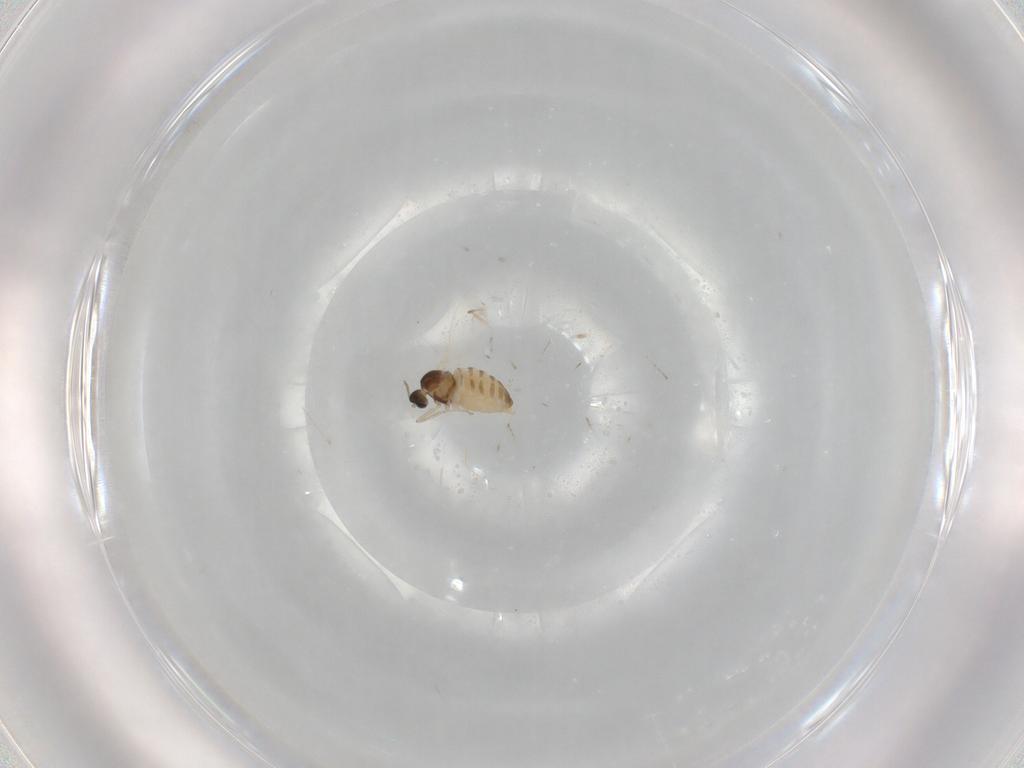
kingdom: Animalia
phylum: Arthropoda
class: Insecta
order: Diptera
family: Cecidomyiidae
